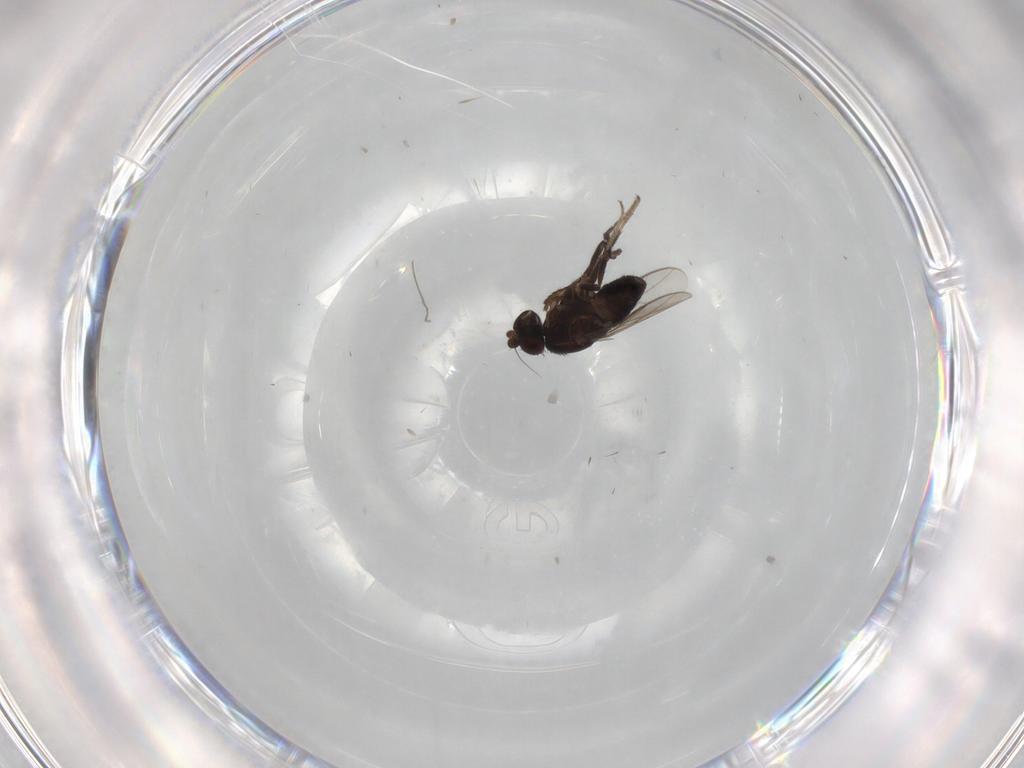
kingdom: Animalia
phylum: Arthropoda
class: Insecta
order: Diptera
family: Sphaeroceridae
